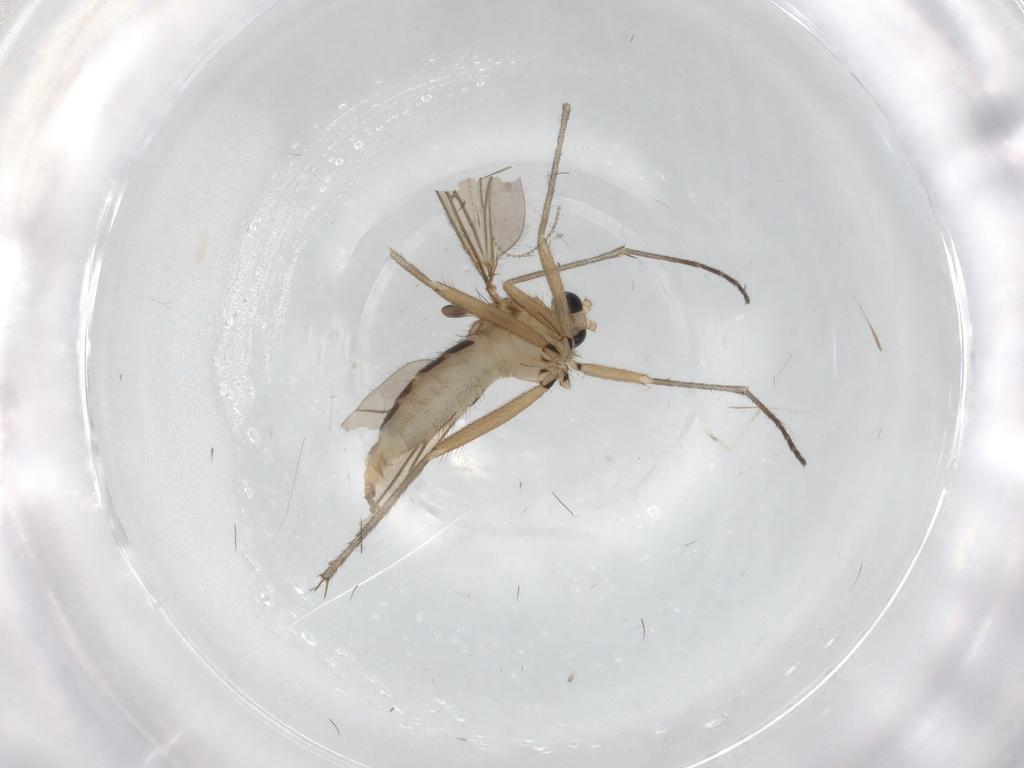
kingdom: Animalia
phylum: Arthropoda
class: Insecta
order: Diptera
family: Sciaridae
